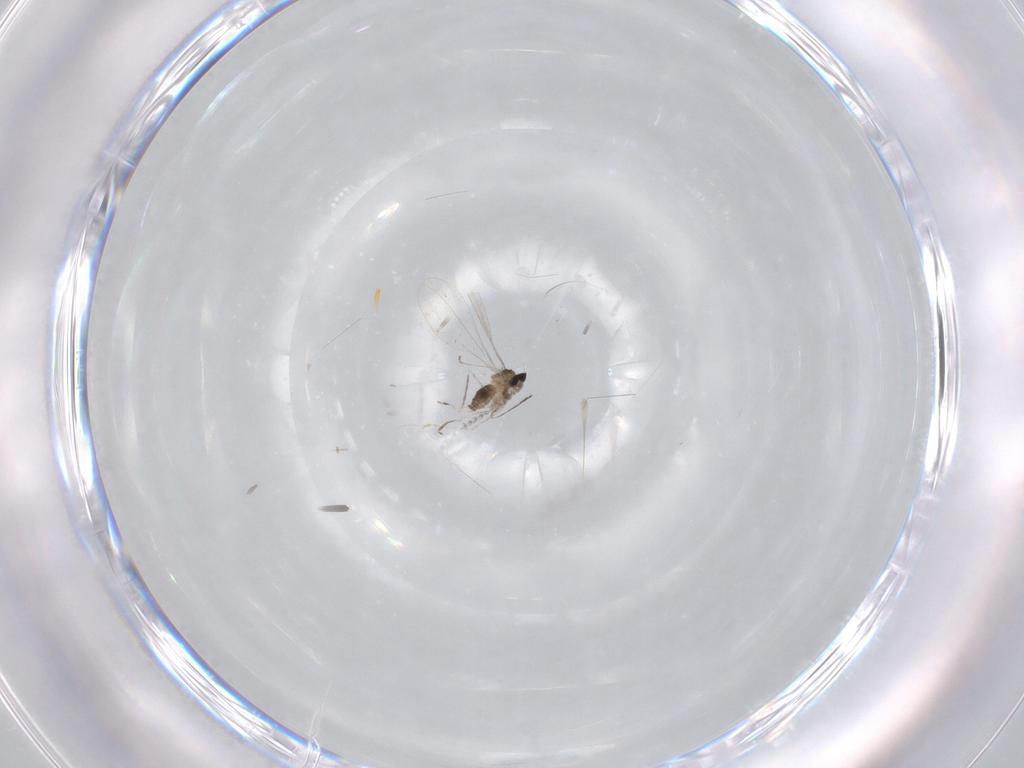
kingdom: Animalia
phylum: Arthropoda
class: Insecta
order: Diptera
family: Cecidomyiidae
